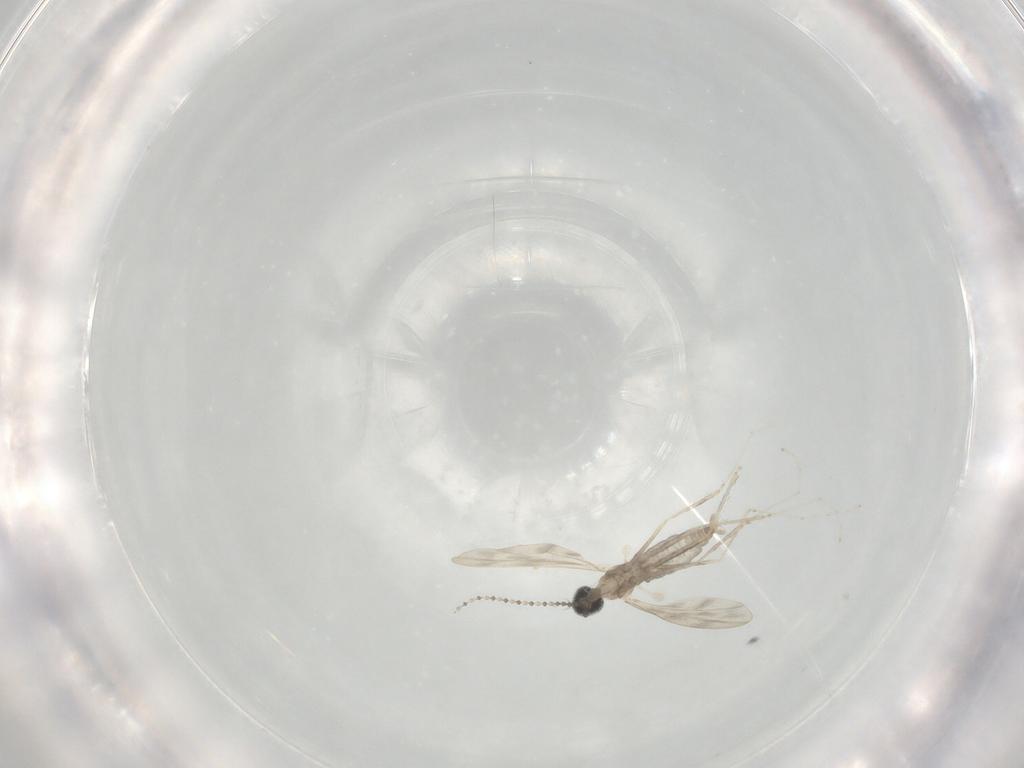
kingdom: Animalia
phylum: Arthropoda
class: Insecta
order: Diptera
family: Cecidomyiidae
